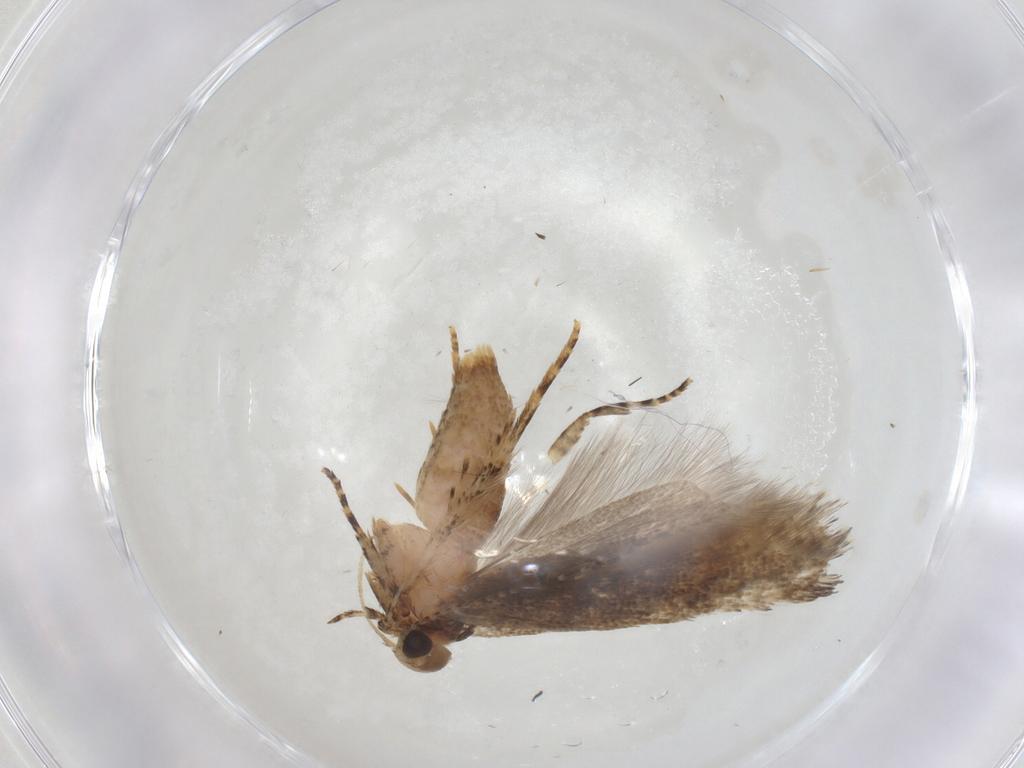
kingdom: Animalia
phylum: Arthropoda
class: Insecta
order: Lepidoptera
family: Gelechiidae
